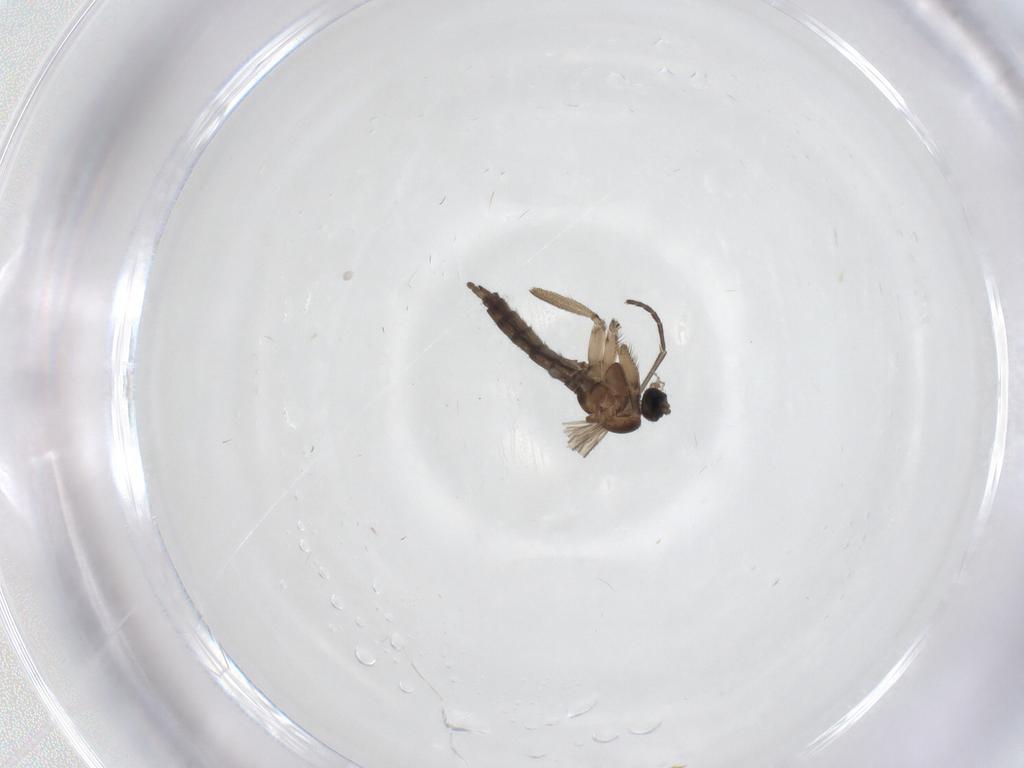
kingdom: Animalia
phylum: Arthropoda
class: Insecta
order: Diptera
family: Sciaridae
